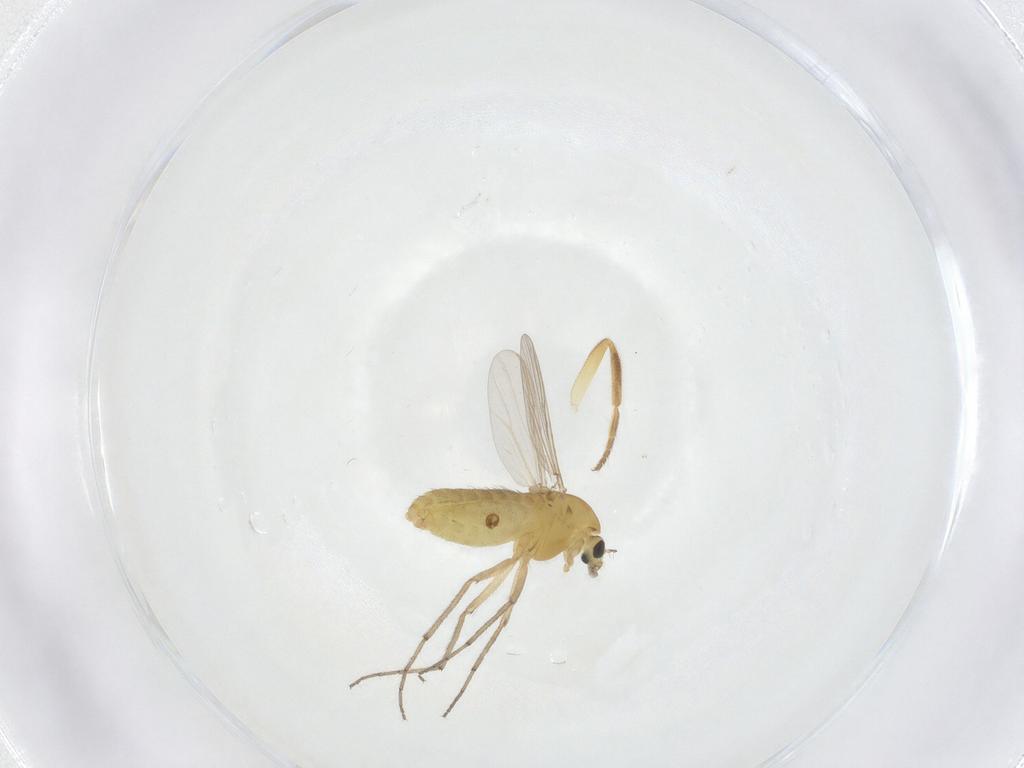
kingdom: Animalia
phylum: Arthropoda
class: Insecta
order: Diptera
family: Chironomidae
